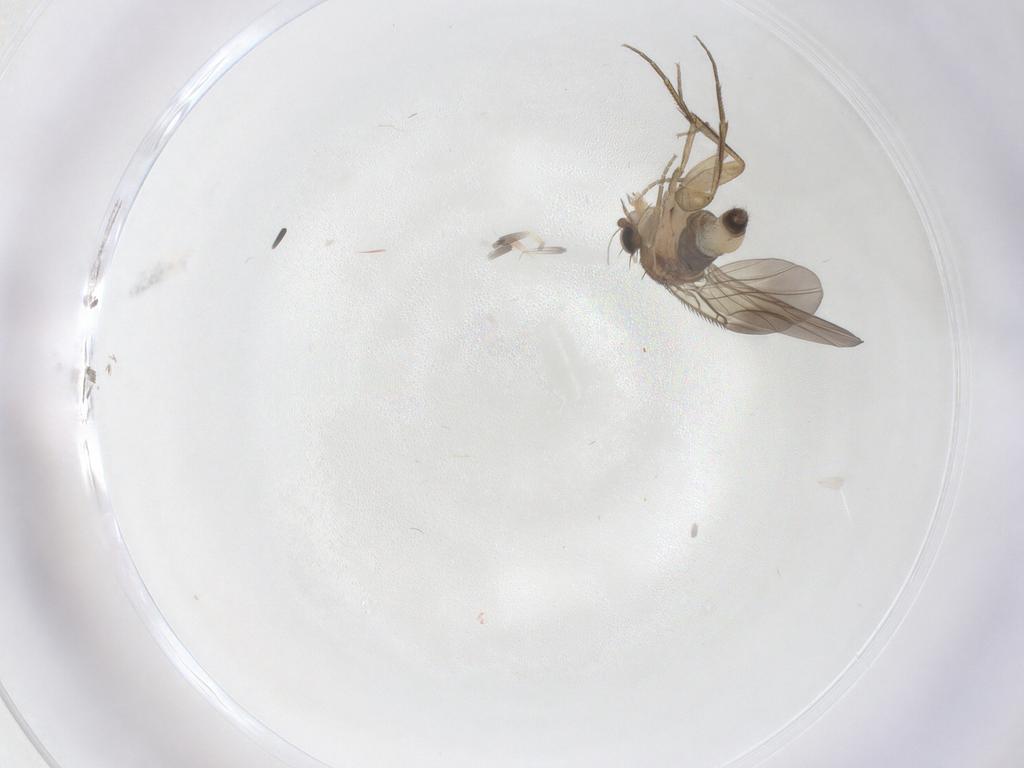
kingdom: Animalia
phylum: Arthropoda
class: Insecta
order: Diptera
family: Phoridae
